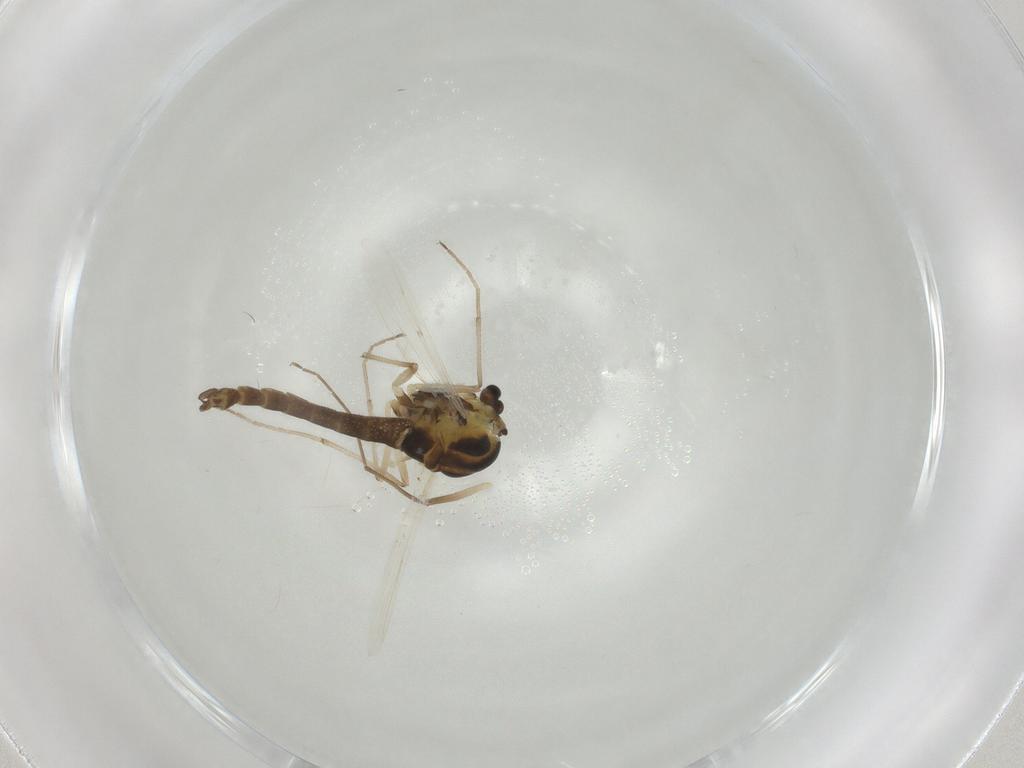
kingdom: Animalia
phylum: Arthropoda
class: Insecta
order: Diptera
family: Chironomidae
